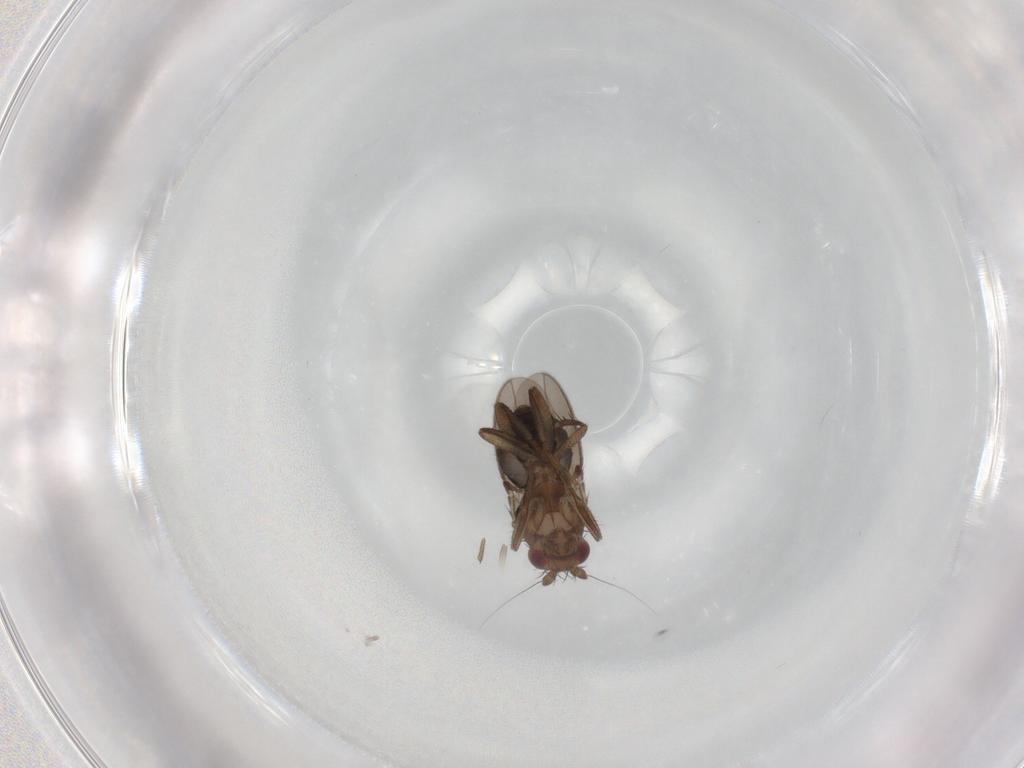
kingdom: Animalia
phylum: Arthropoda
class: Insecta
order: Diptera
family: Sphaeroceridae
